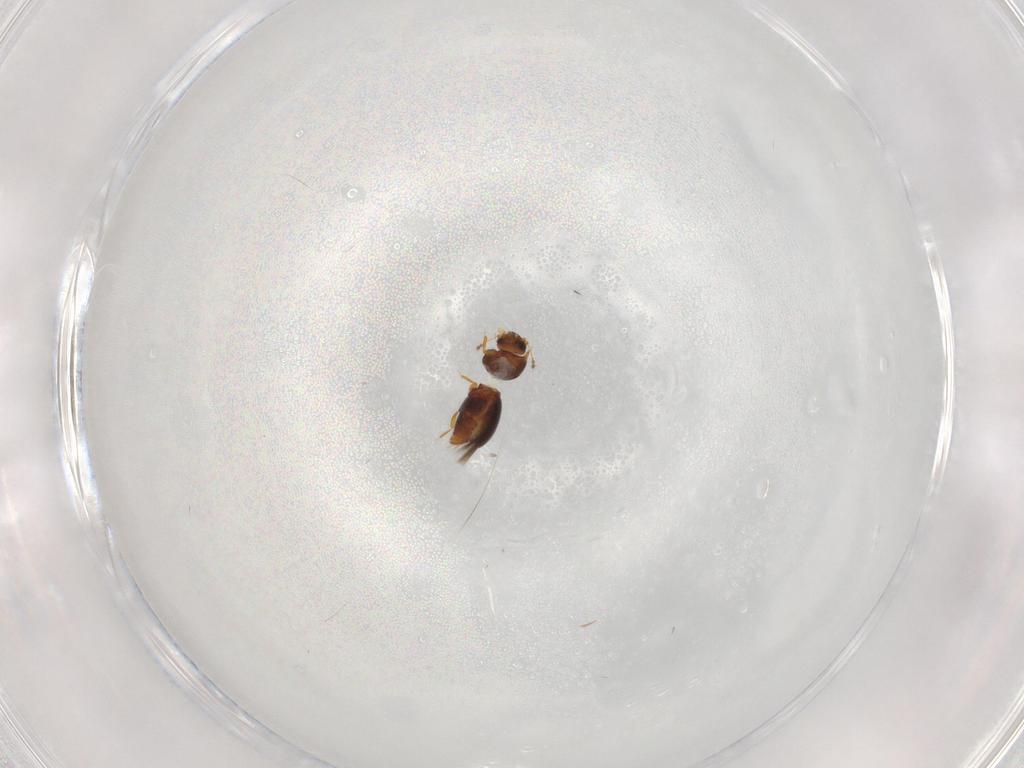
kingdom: Animalia
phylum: Arthropoda
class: Insecta
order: Coleoptera
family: Ptiliidae
